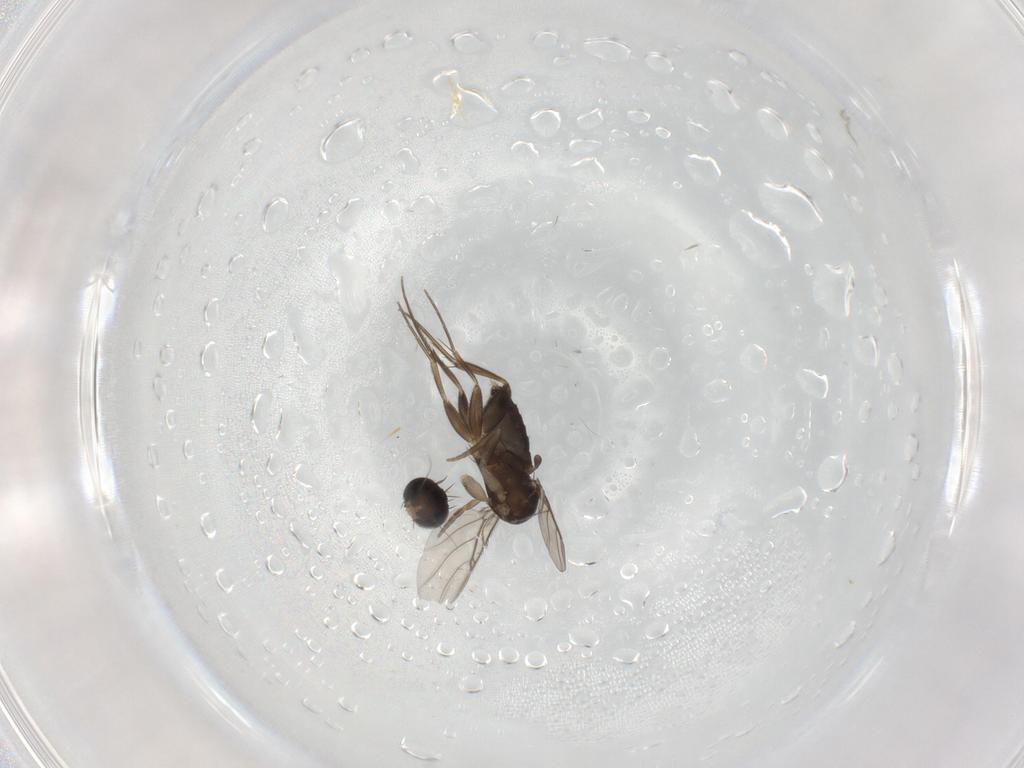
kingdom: Animalia
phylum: Arthropoda
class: Insecta
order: Diptera
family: Phoridae
